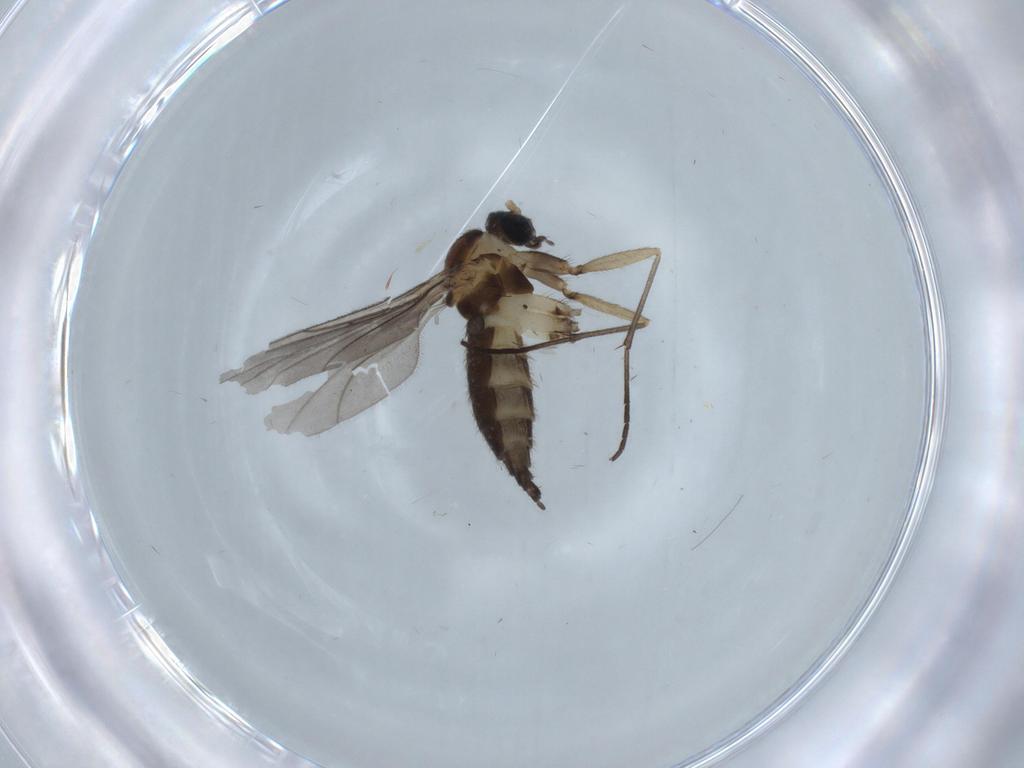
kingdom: Animalia
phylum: Arthropoda
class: Insecta
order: Diptera
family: Sciaridae
